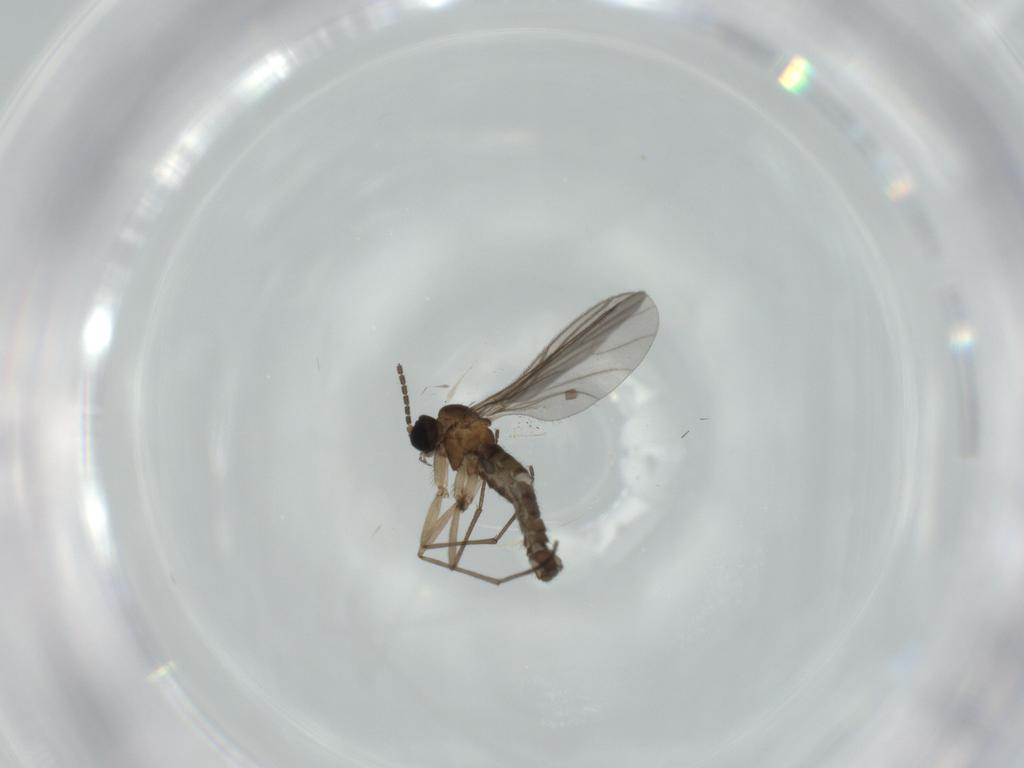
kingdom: Animalia
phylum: Arthropoda
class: Insecta
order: Diptera
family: Sciaridae
